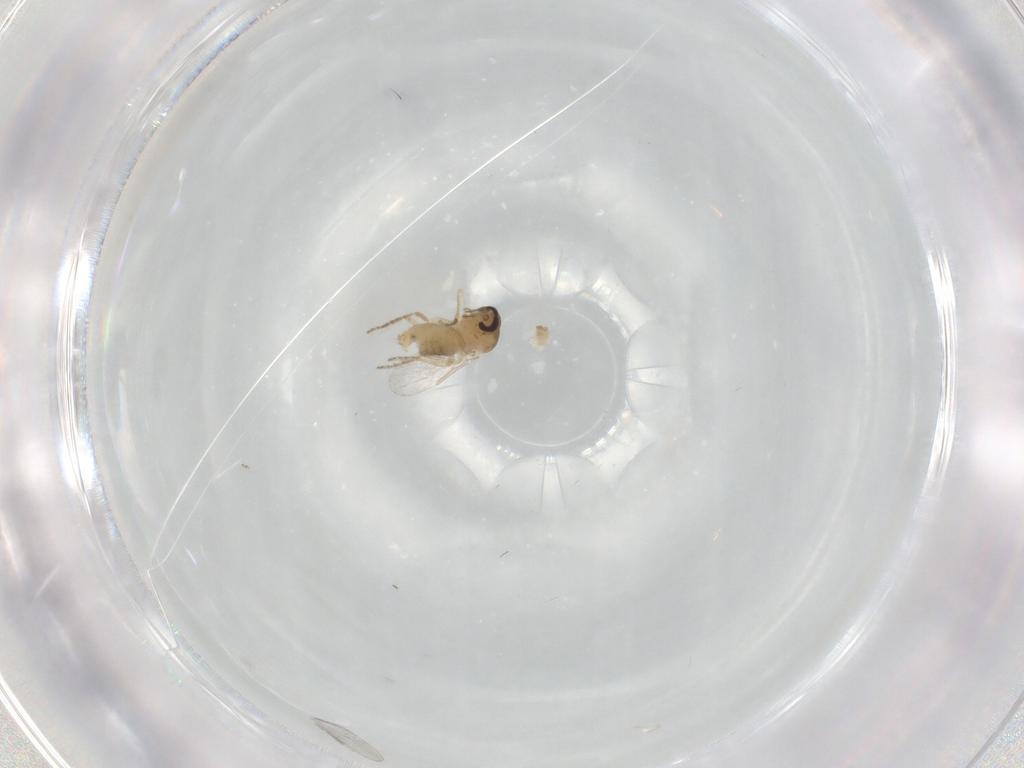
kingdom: Animalia
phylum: Arthropoda
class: Insecta
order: Diptera
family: Ceratopogonidae
